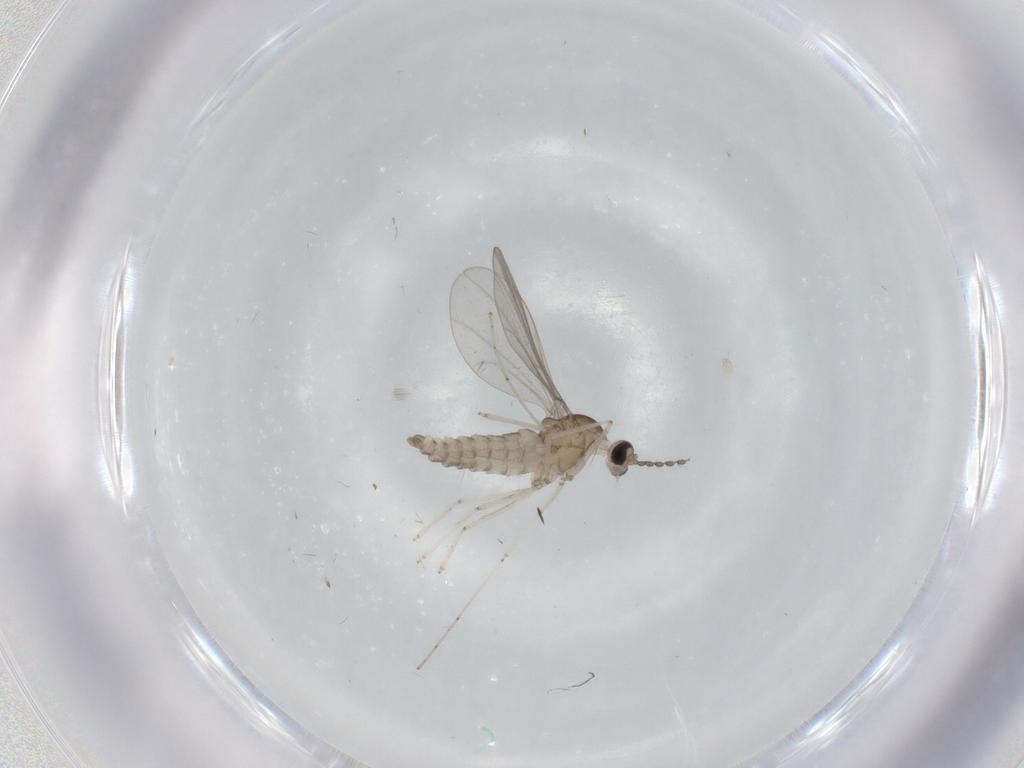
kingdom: Animalia
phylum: Arthropoda
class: Insecta
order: Diptera
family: Cecidomyiidae
